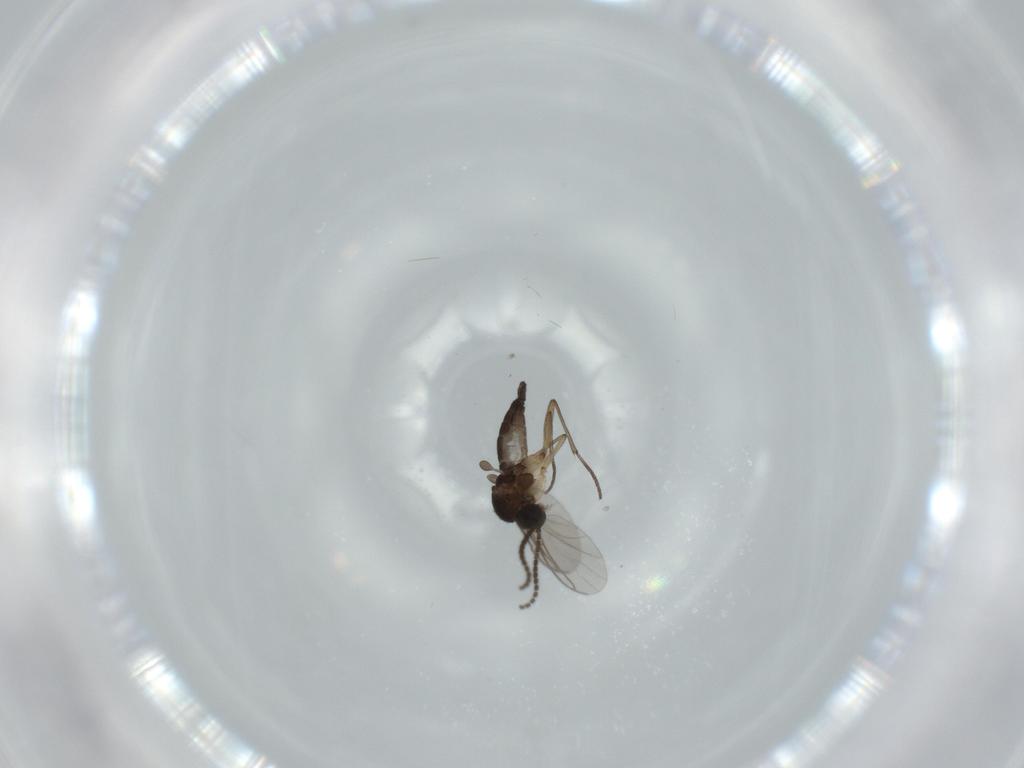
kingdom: Animalia
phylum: Arthropoda
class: Insecta
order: Diptera
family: Sciaridae
